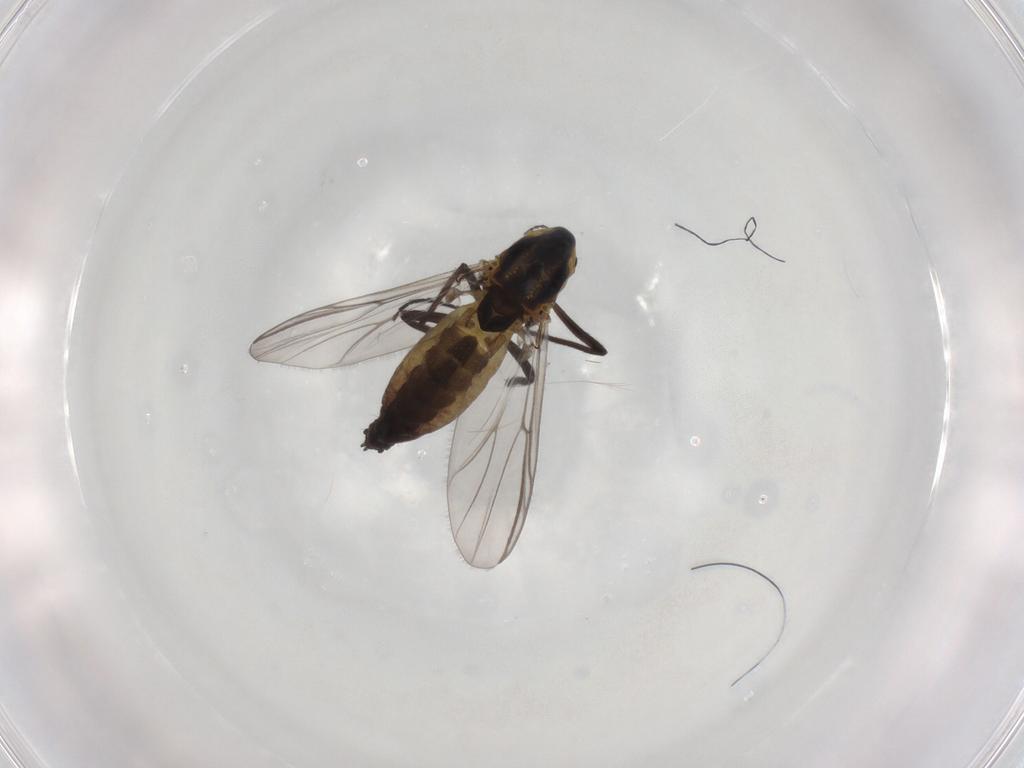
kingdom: Animalia
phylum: Arthropoda
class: Insecta
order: Diptera
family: Chironomidae
